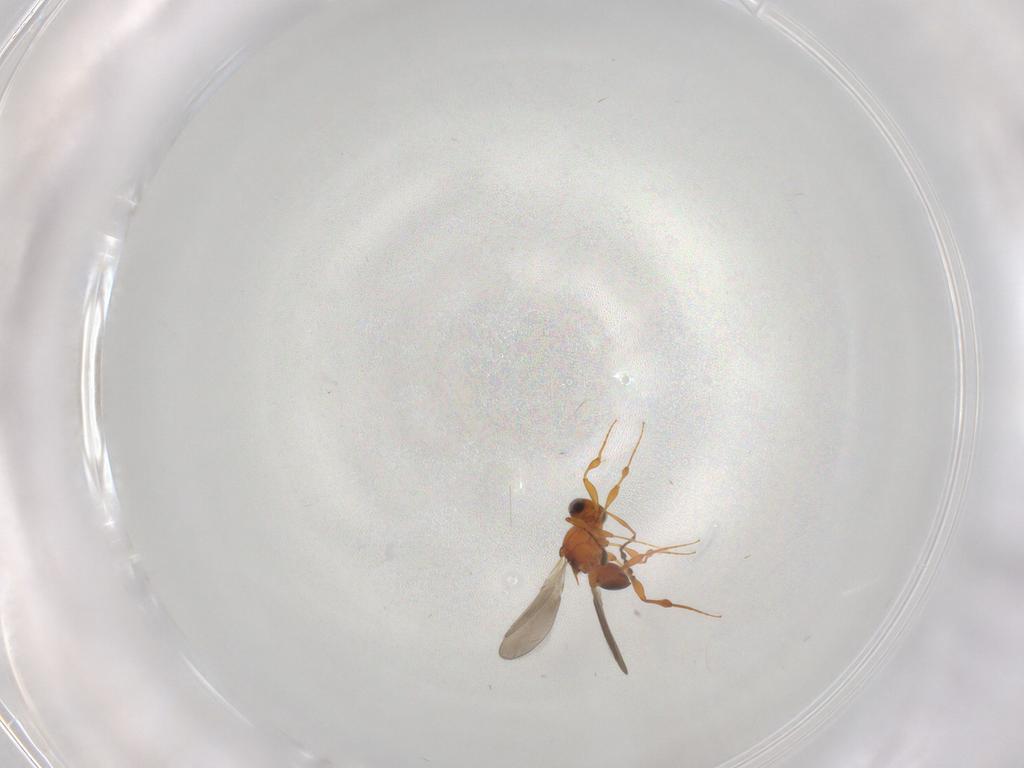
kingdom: Animalia
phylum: Arthropoda
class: Insecta
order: Hymenoptera
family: Platygastridae
